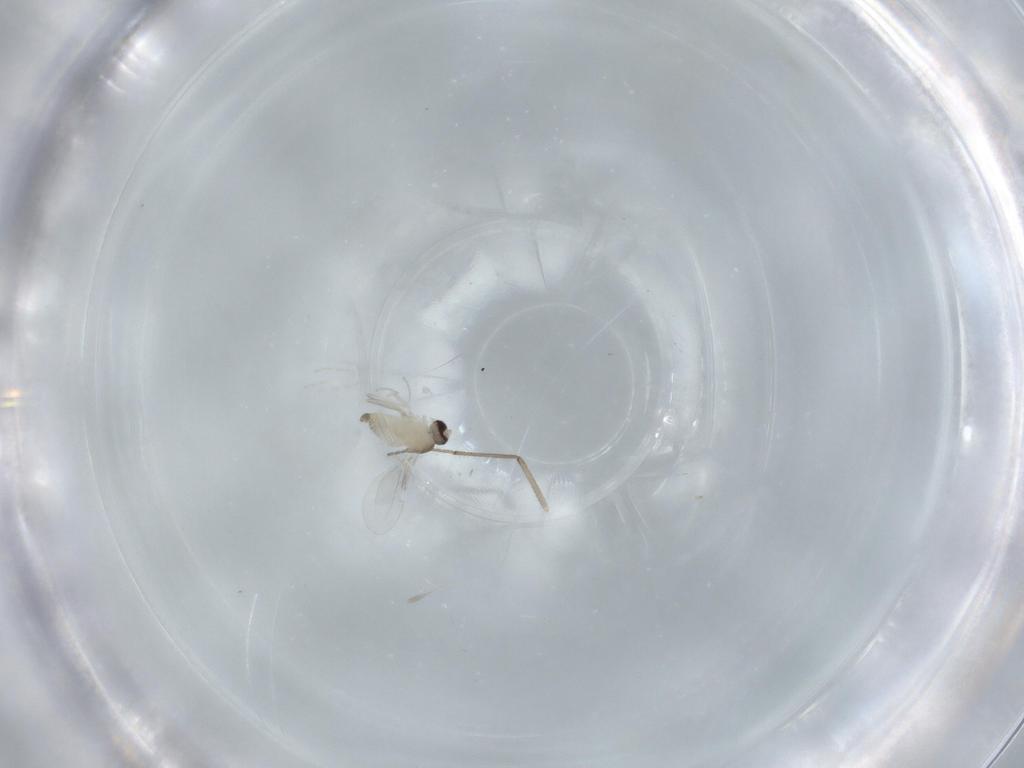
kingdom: Animalia
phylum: Arthropoda
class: Insecta
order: Diptera
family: Cecidomyiidae
